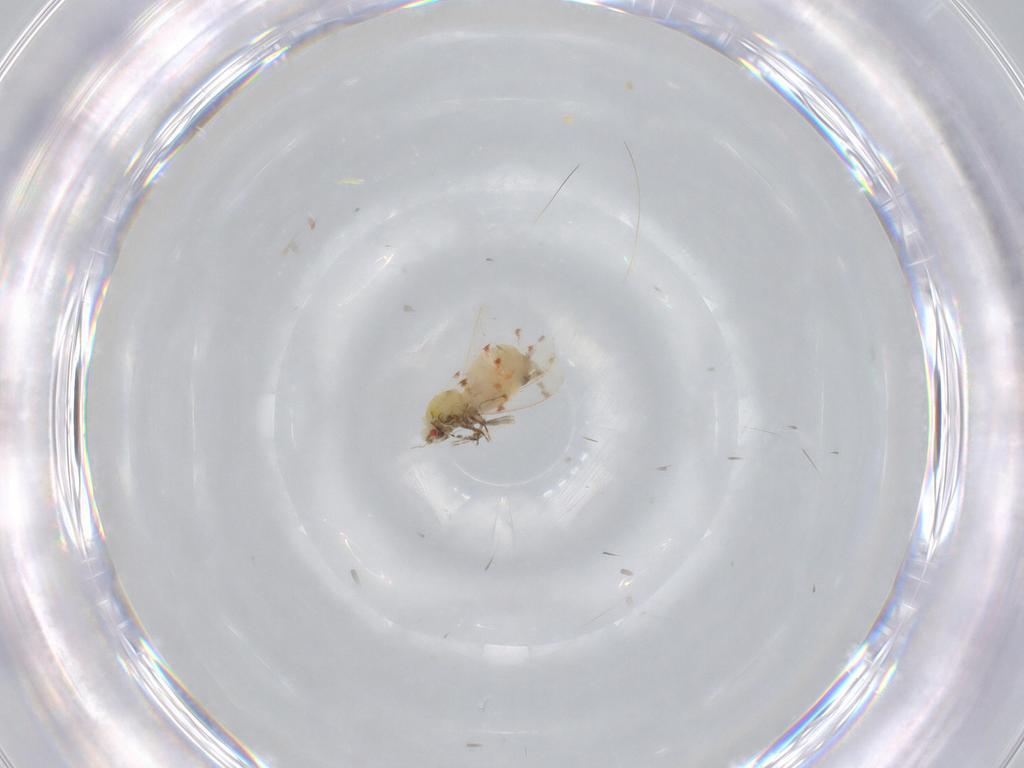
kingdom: Animalia
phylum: Arthropoda
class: Insecta
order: Hemiptera
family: Aleyrodidae
